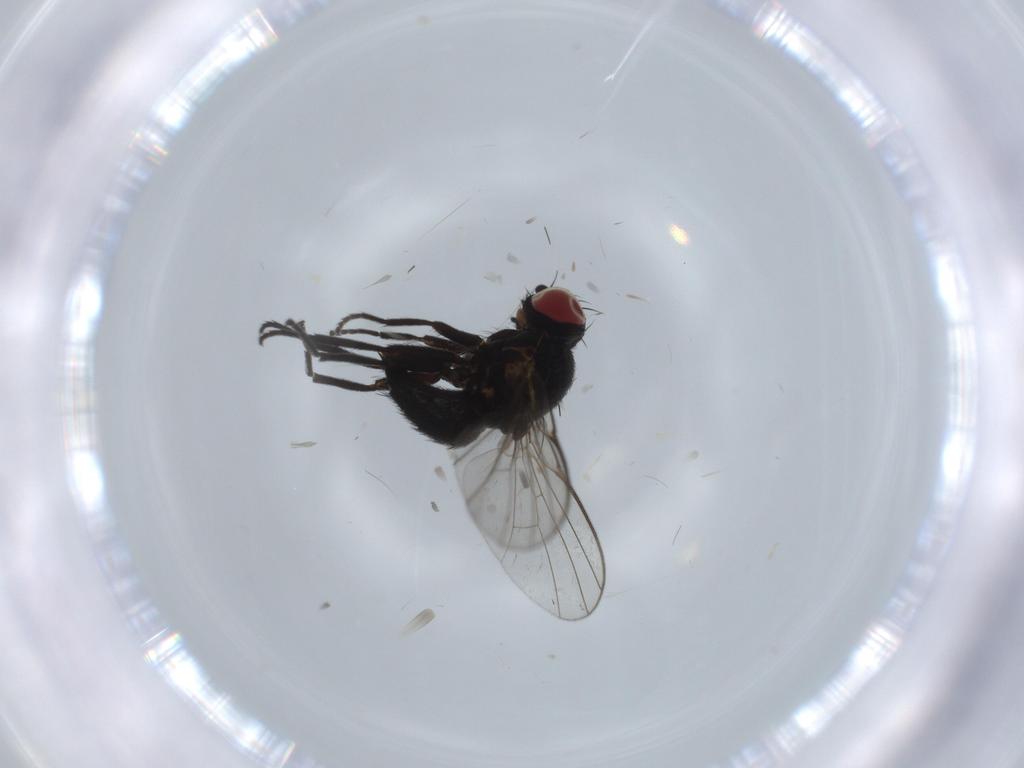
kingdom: Animalia
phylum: Arthropoda
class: Insecta
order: Diptera
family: Agromyzidae
